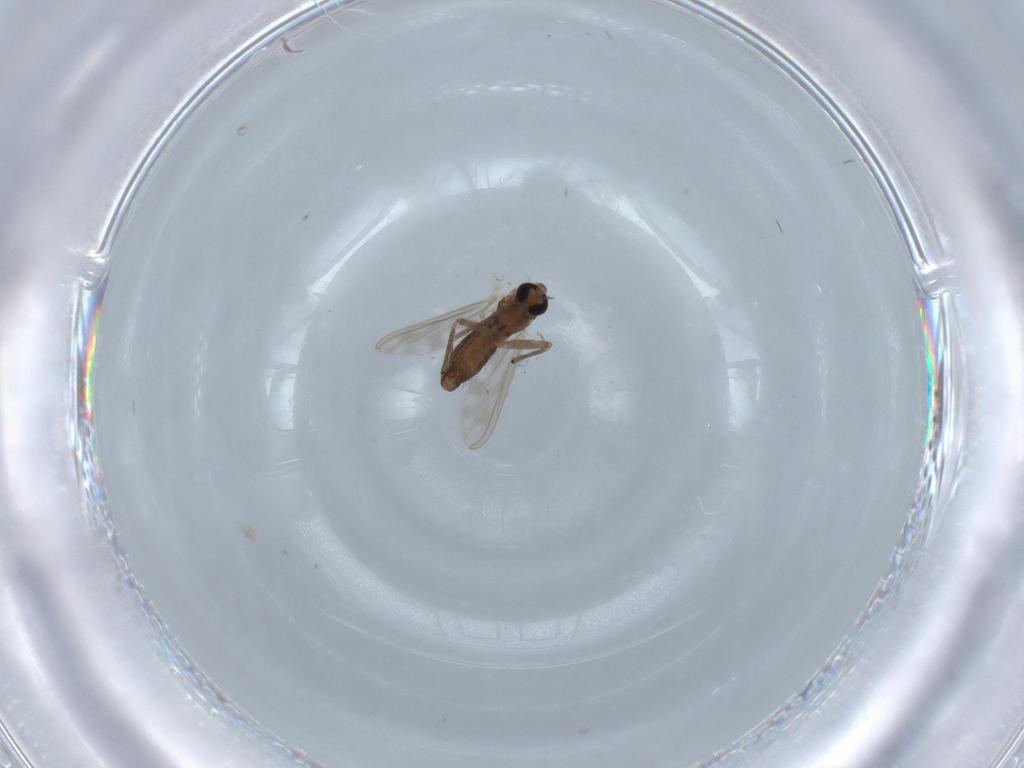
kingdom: Animalia
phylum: Arthropoda
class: Insecta
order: Diptera
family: Chironomidae
